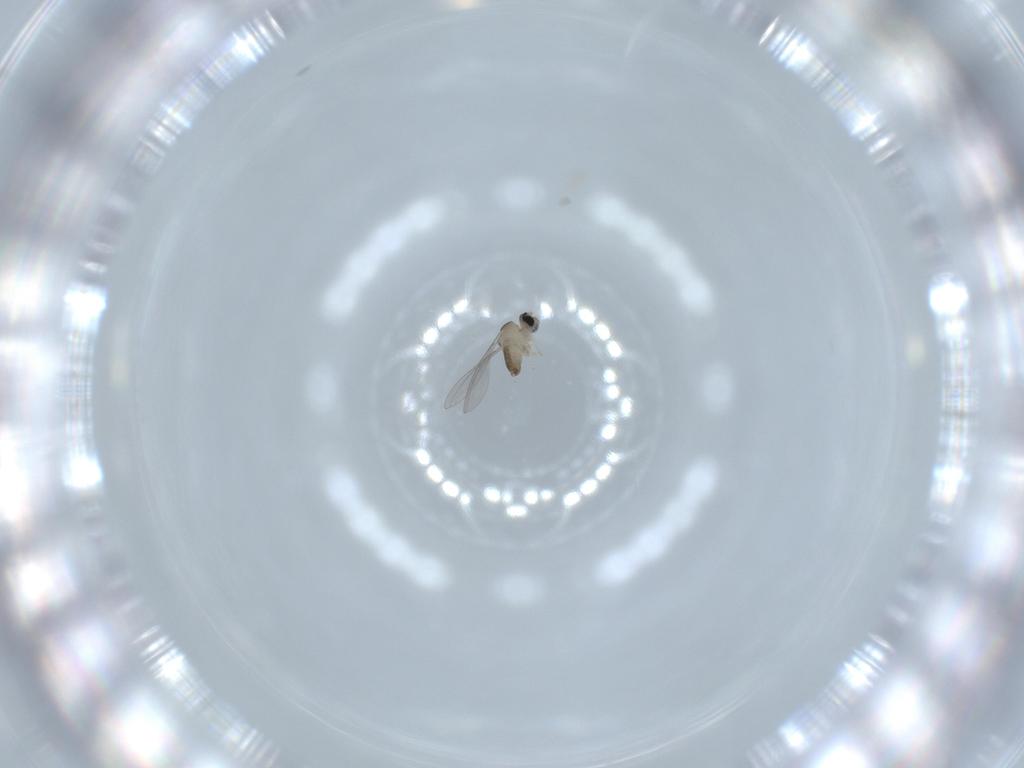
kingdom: Animalia
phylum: Arthropoda
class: Insecta
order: Diptera
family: Cecidomyiidae
